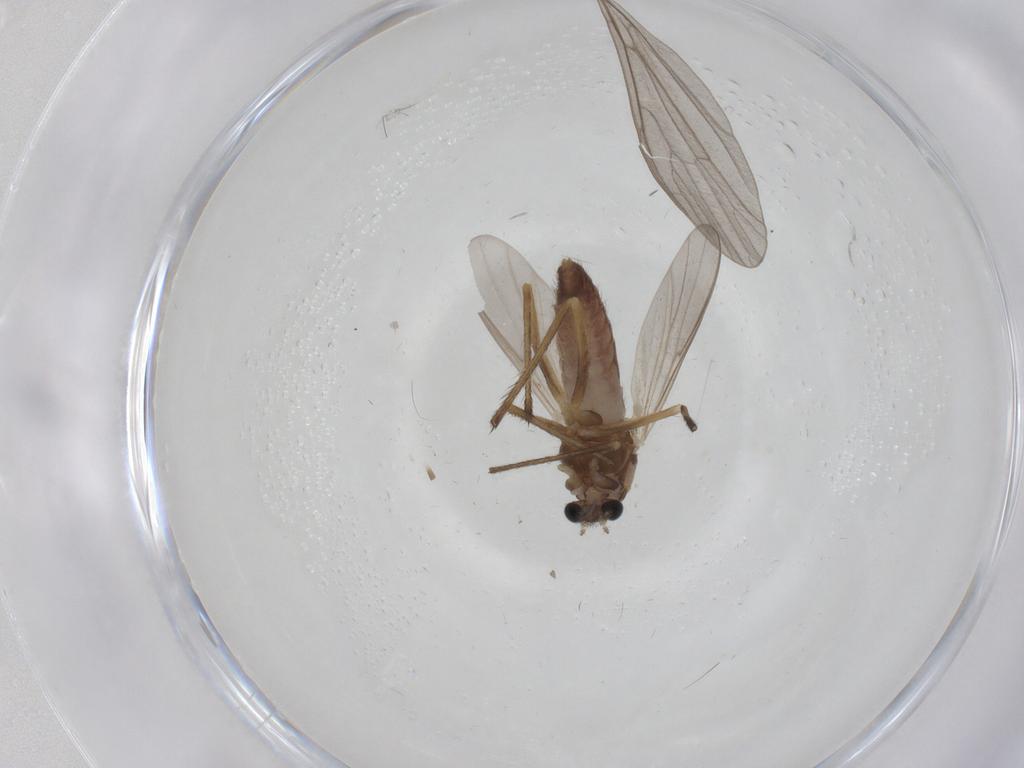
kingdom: Animalia
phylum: Arthropoda
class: Insecta
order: Diptera
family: Chironomidae
